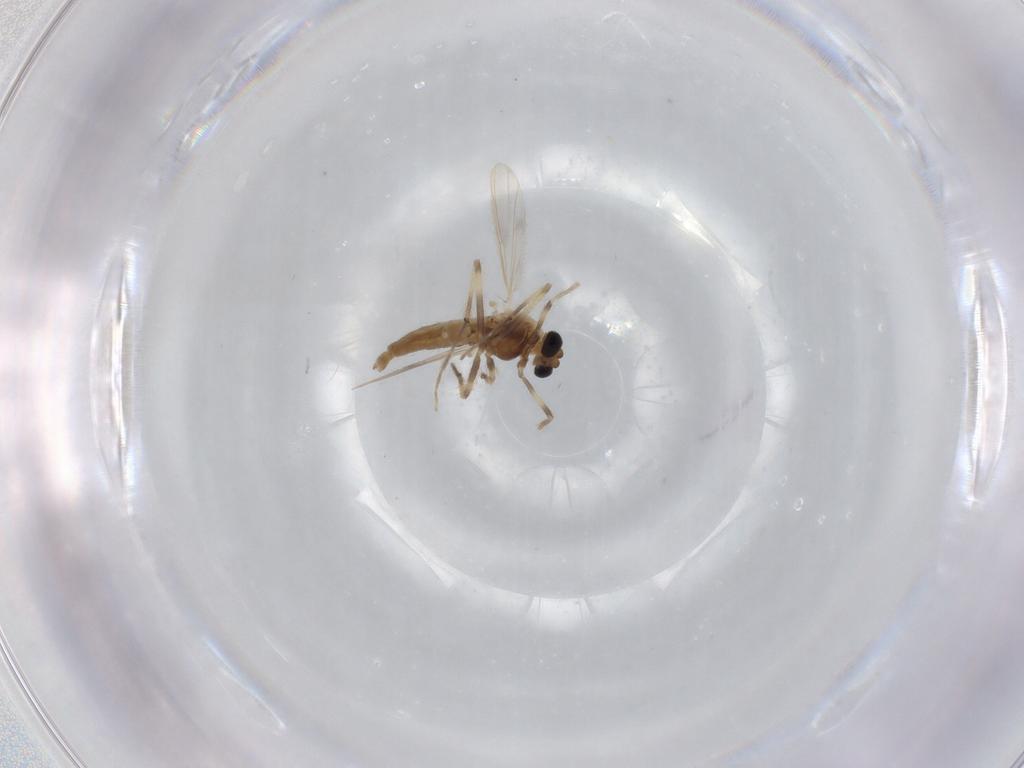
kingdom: Animalia
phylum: Arthropoda
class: Insecta
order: Diptera
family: Chironomidae
